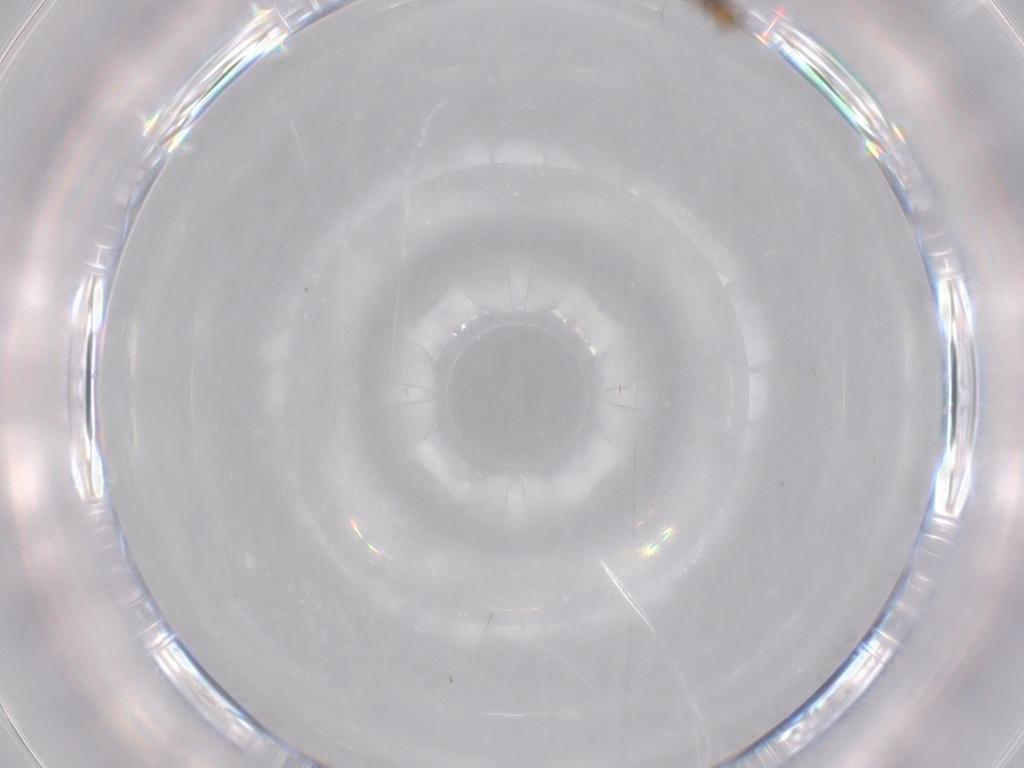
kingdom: Animalia
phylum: Arthropoda
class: Insecta
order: Hymenoptera
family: Trichogrammatidae
